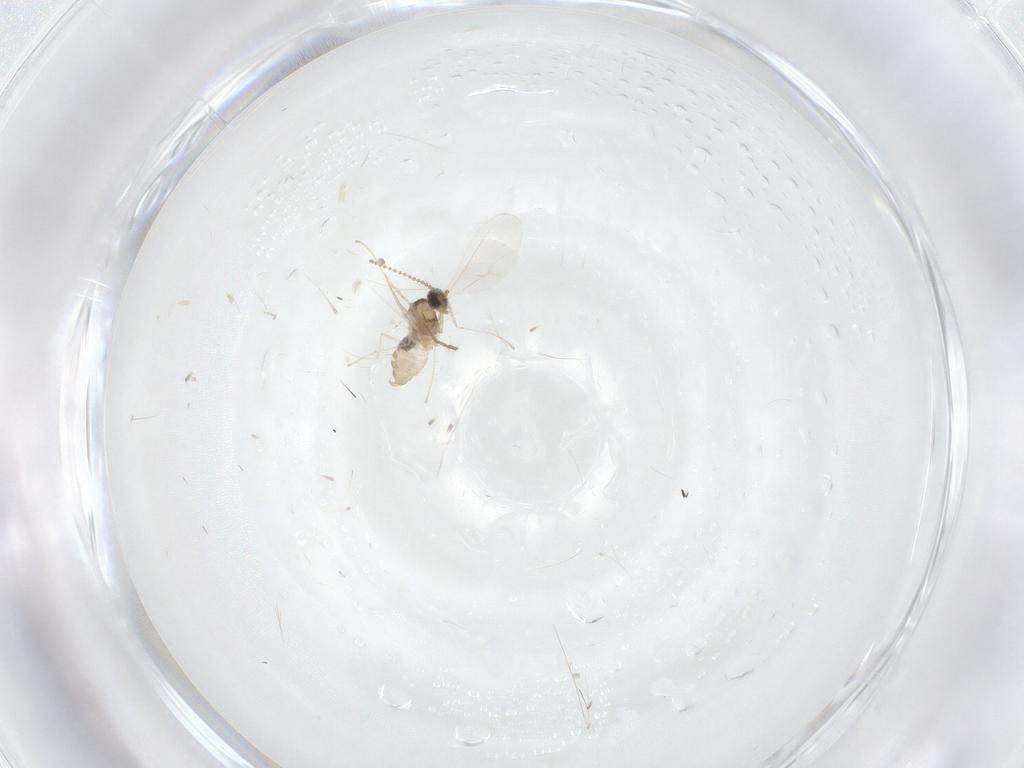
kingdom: Animalia
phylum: Arthropoda
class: Insecta
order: Diptera
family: Cecidomyiidae
